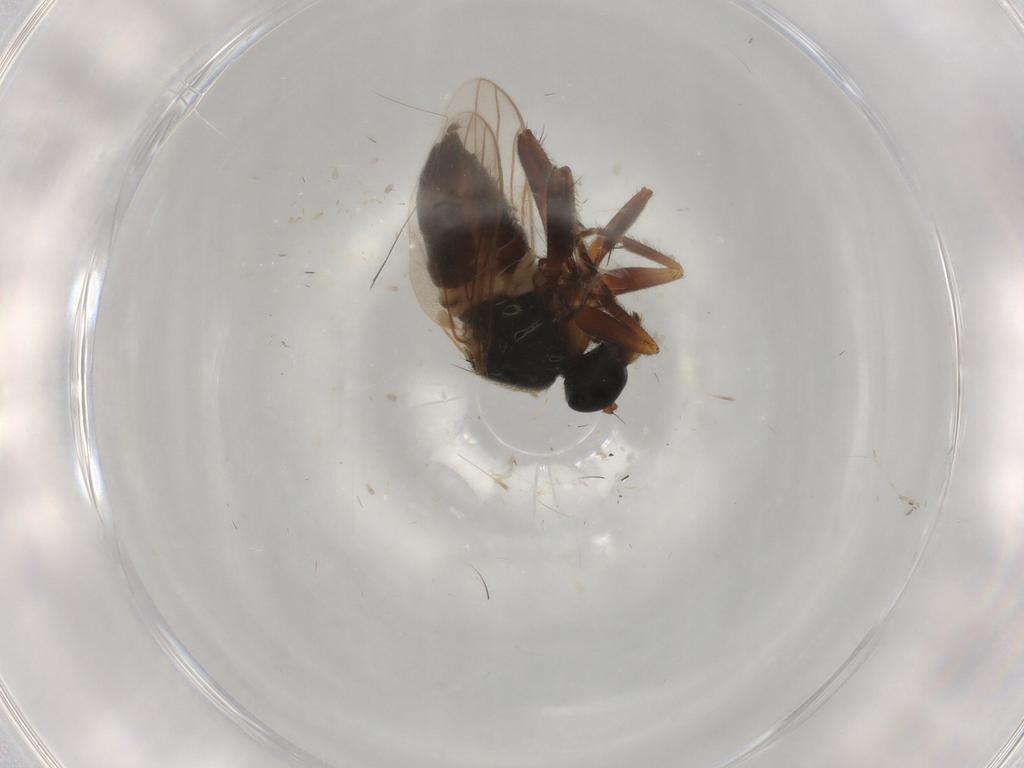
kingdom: Animalia
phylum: Arthropoda
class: Insecta
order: Diptera
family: Hybotidae
